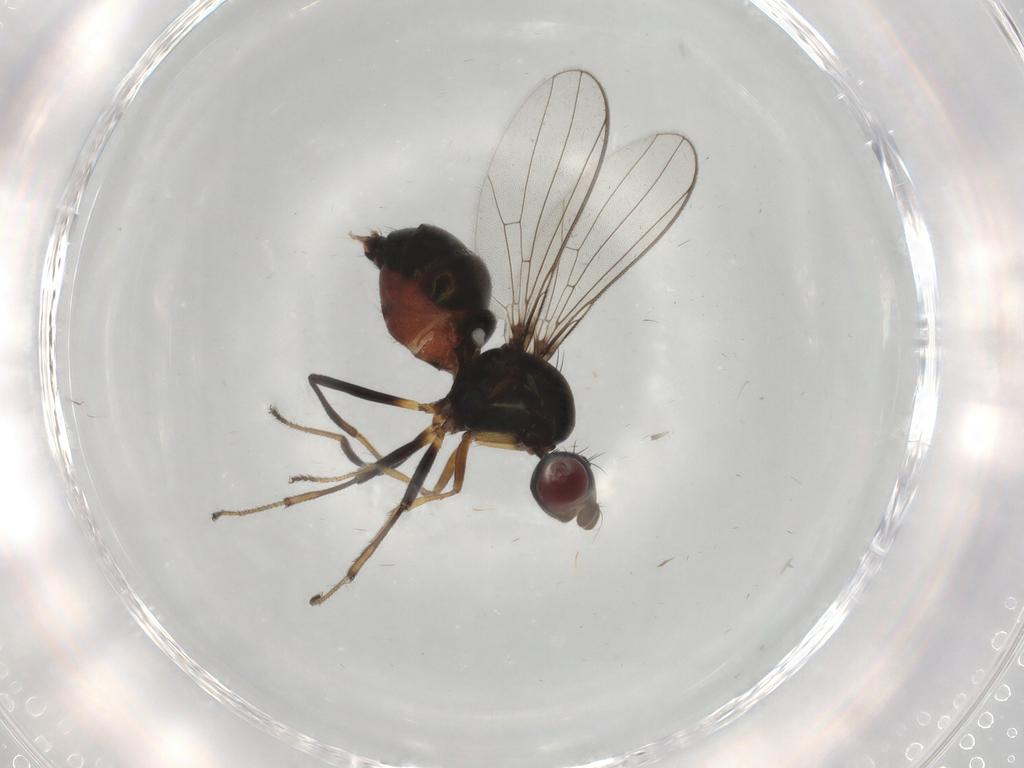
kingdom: Animalia
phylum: Arthropoda
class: Insecta
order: Diptera
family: Sepsidae
